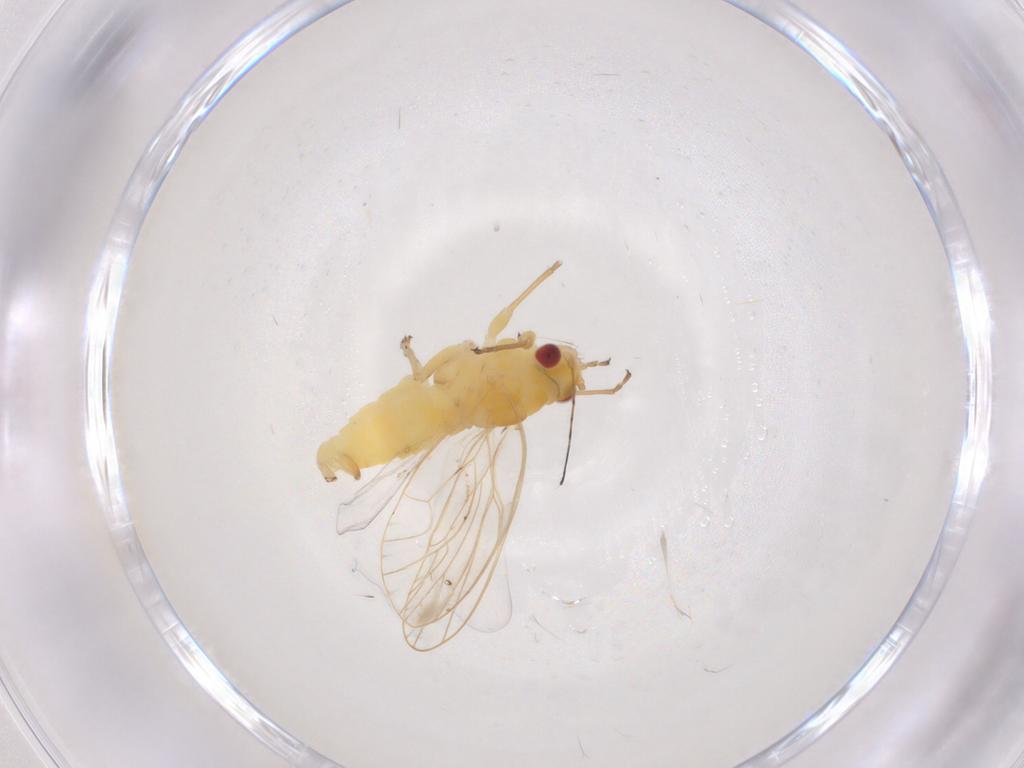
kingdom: Animalia
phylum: Arthropoda
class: Insecta
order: Hemiptera
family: Psyllidae
